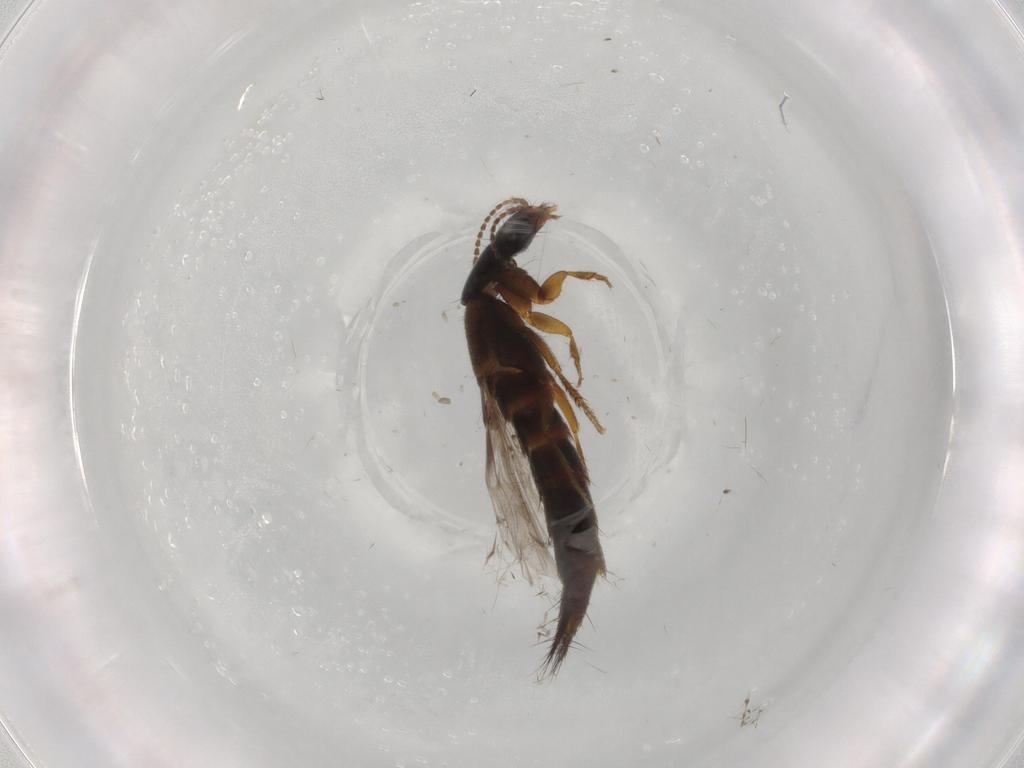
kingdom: Animalia
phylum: Arthropoda
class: Insecta
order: Coleoptera
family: Staphylinidae
